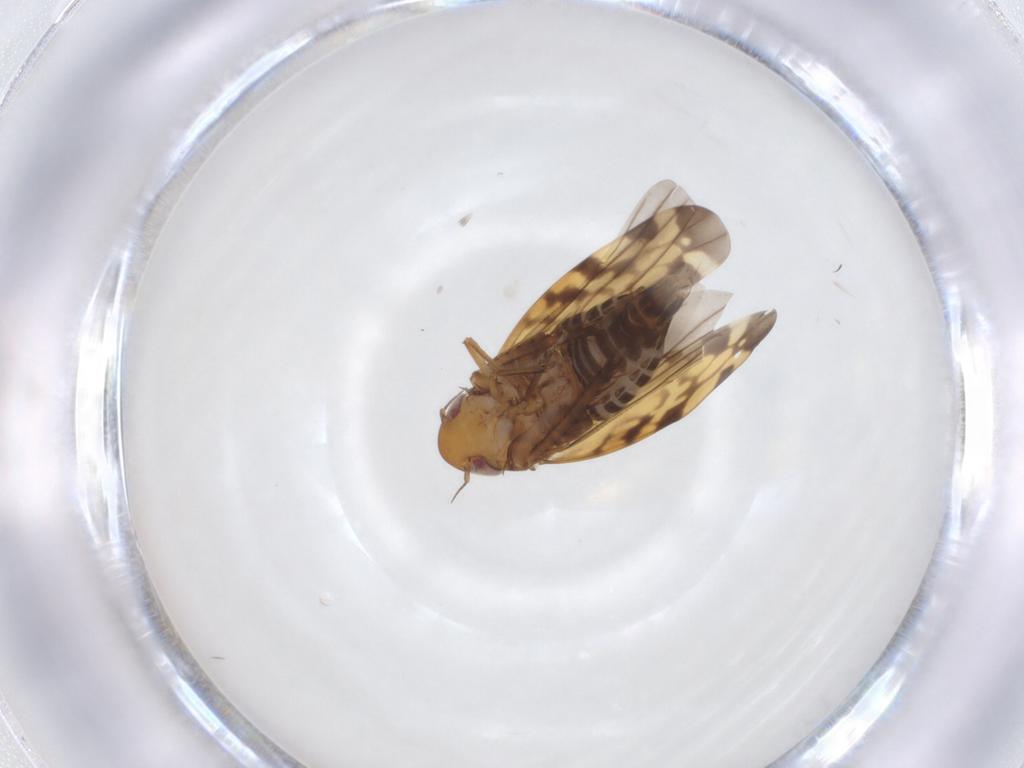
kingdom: Animalia
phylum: Arthropoda
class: Insecta
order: Hemiptera
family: Cicadellidae
